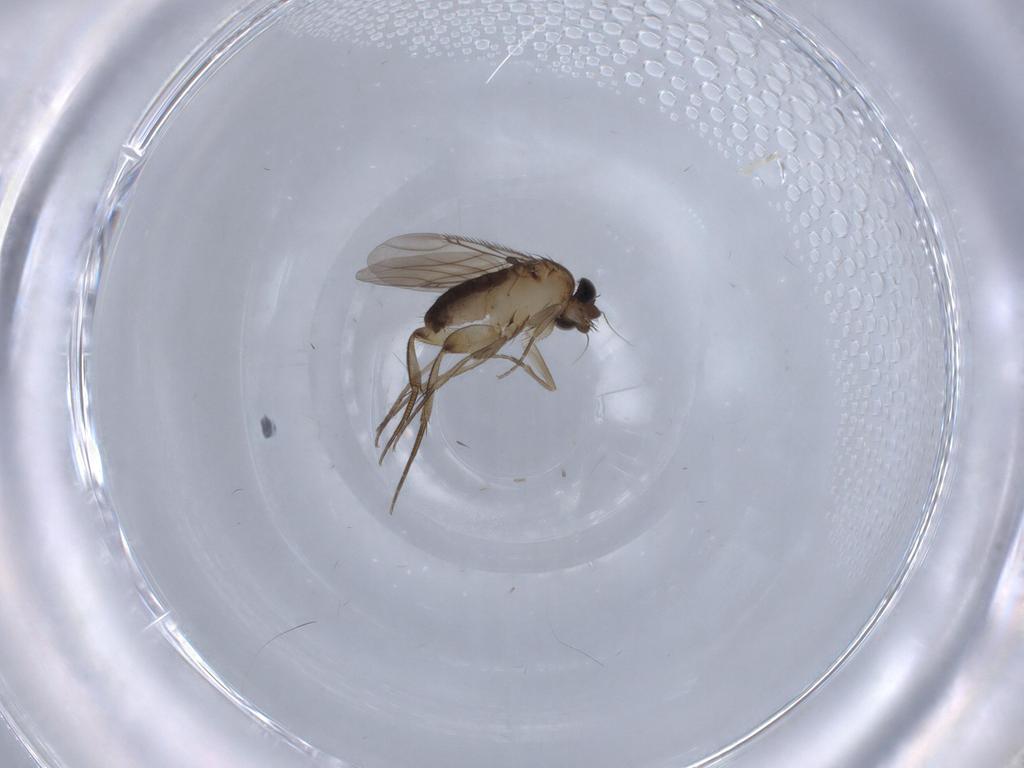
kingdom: Animalia
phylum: Arthropoda
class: Insecta
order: Diptera
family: Phoridae
